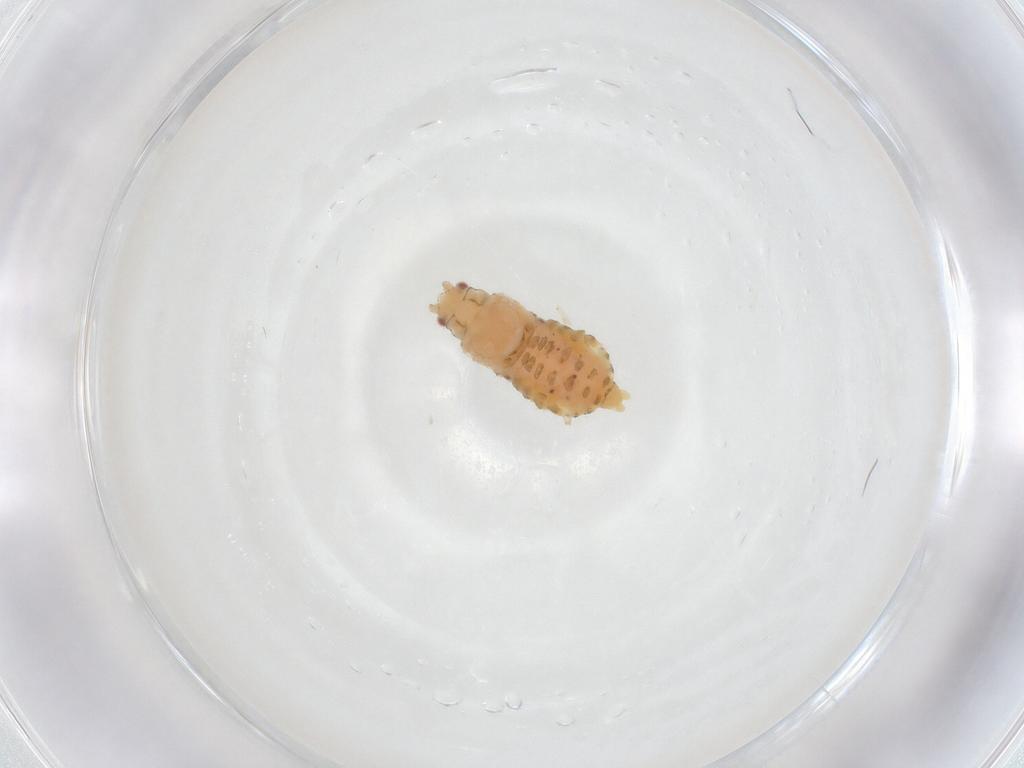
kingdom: Animalia
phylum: Arthropoda
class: Insecta
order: Hemiptera
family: Aphididae
